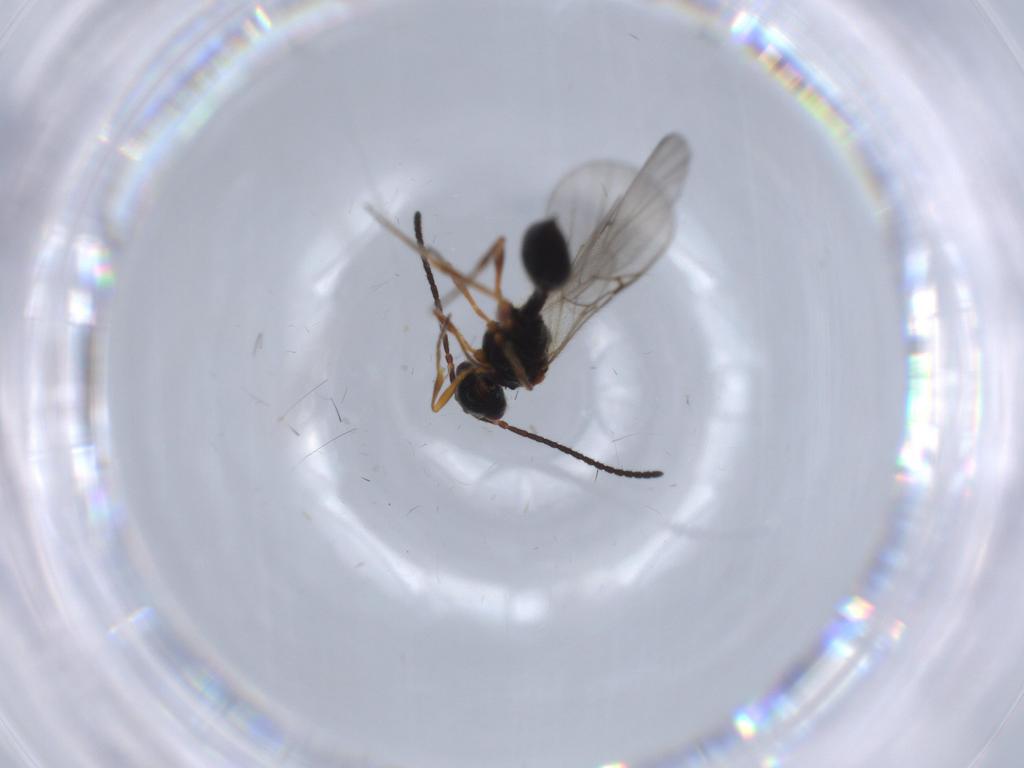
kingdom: Animalia
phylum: Arthropoda
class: Insecta
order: Hymenoptera
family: Diapriidae
